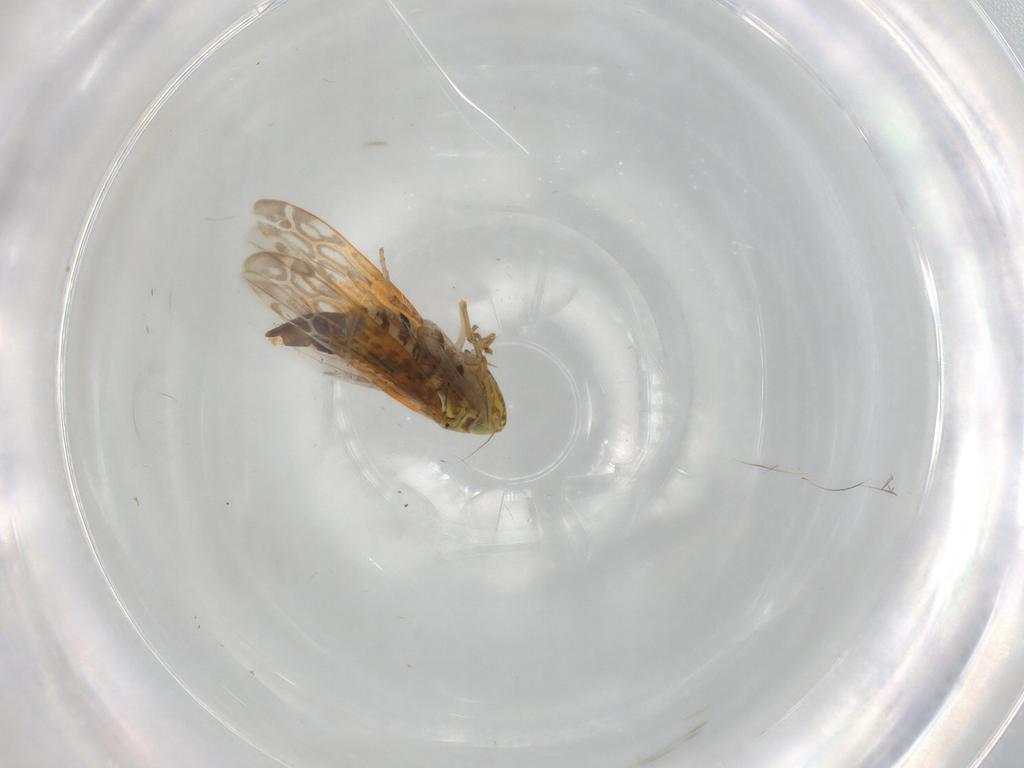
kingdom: Animalia
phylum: Arthropoda
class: Insecta
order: Hemiptera
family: Cicadellidae
